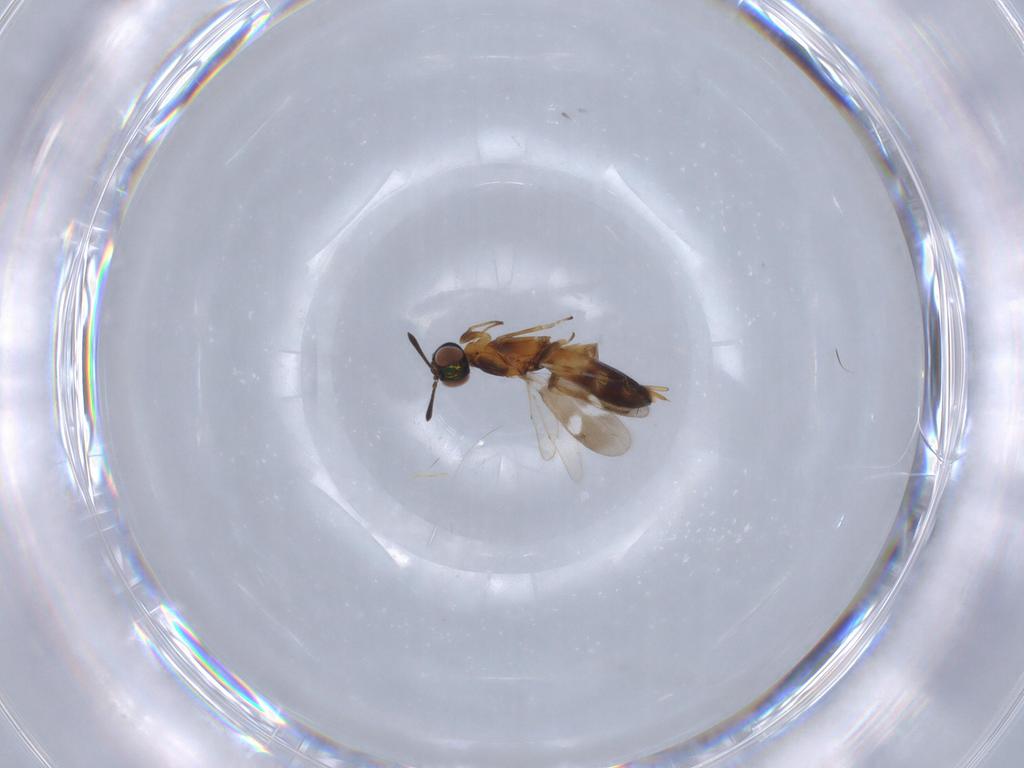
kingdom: Animalia
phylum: Arthropoda
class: Insecta
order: Hymenoptera
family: Eupelmidae
